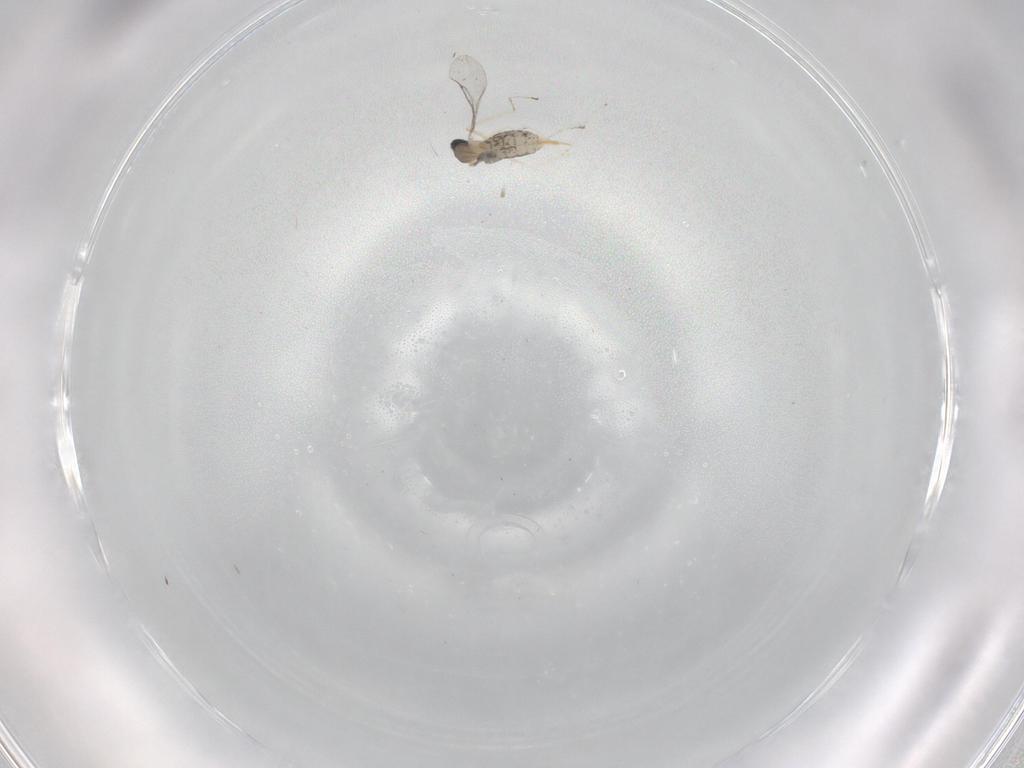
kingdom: Animalia
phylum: Arthropoda
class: Insecta
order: Diptera
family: Cecidomyiidae
